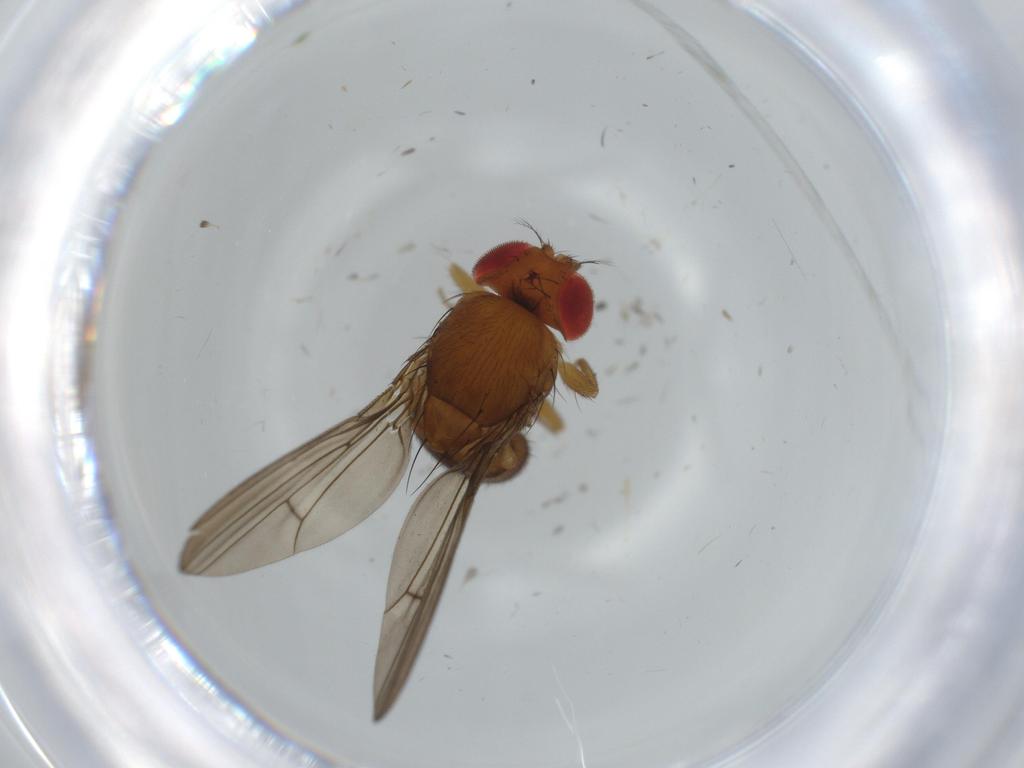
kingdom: Animalia
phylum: Arthropoda
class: Insecta
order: Diptera
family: Drosophilidae
